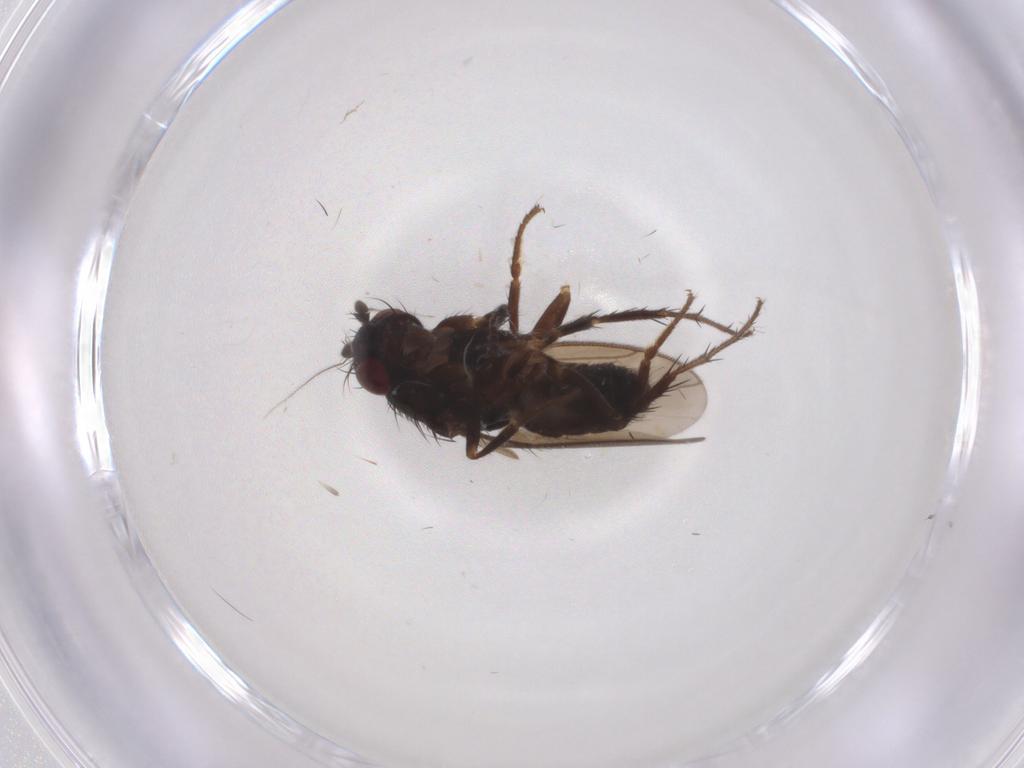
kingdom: Animalia
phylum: Arthropoda
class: Insecta
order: Diptera
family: Sphaeroceridae
